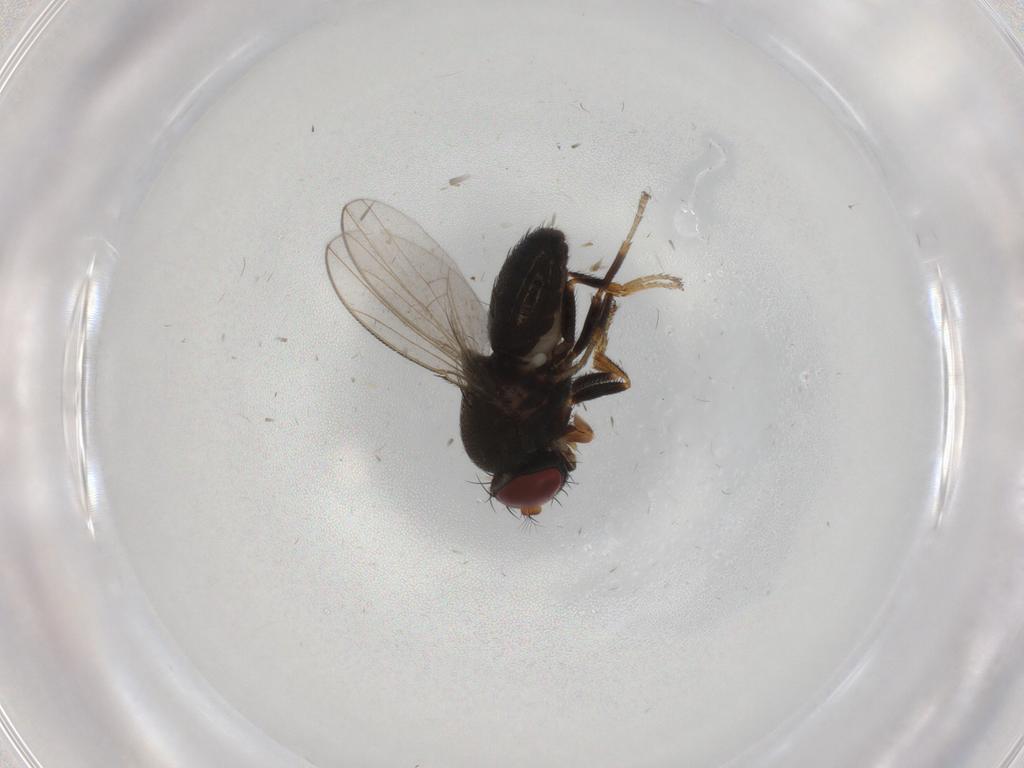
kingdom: Animalia
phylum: Arthropoda
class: Insecta
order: Diptera
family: Ephydridae
